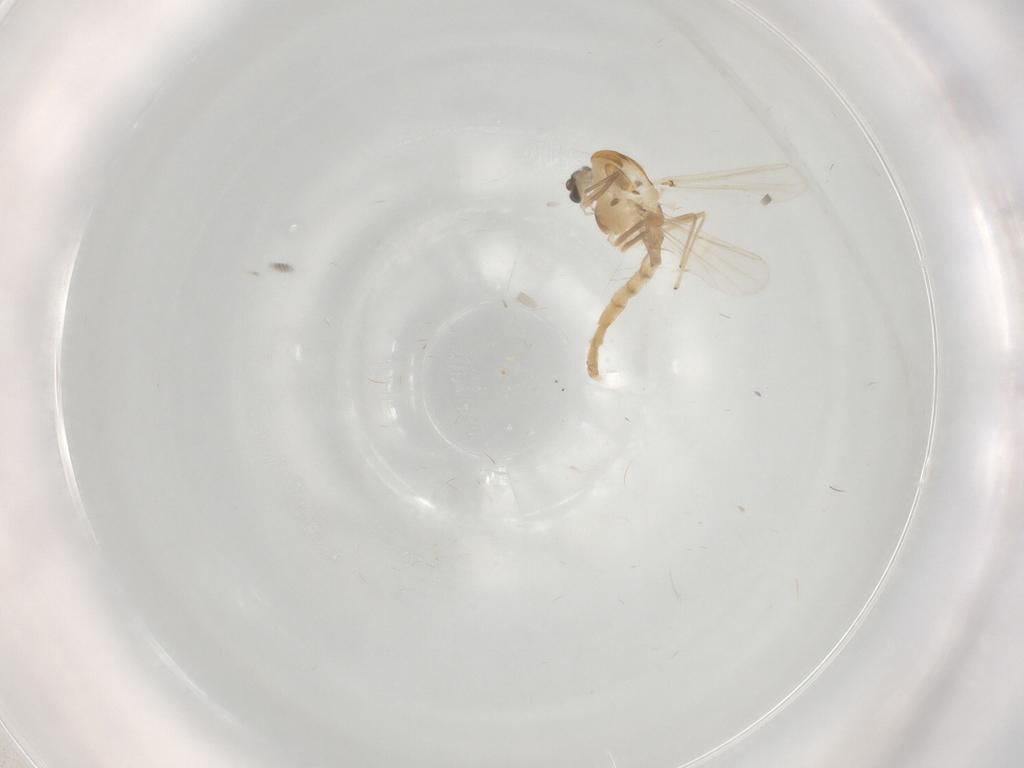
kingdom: Animalia
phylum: Arthropoda
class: Insecta
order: Diptera
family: Chironomidae
